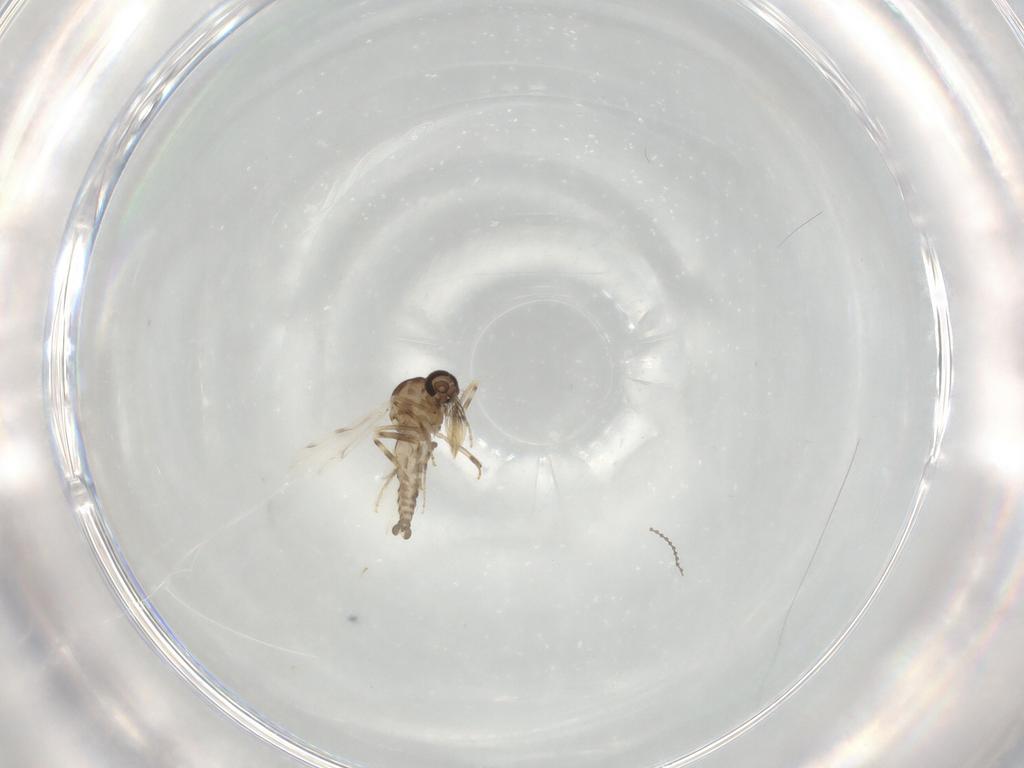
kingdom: Animalia
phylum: Arthropoda
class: Insecta
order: Diptera
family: Ceratopogonidae
